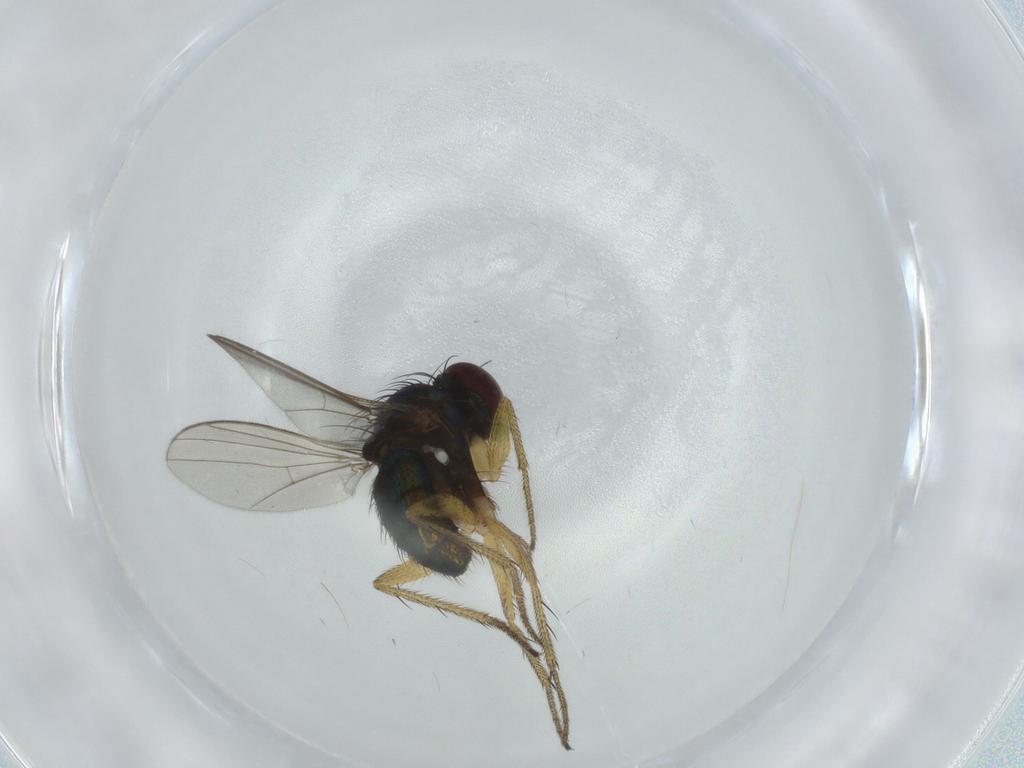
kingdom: Animalia
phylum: Arthropoda
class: Insecta
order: Diptera
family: Dolichopodidae
